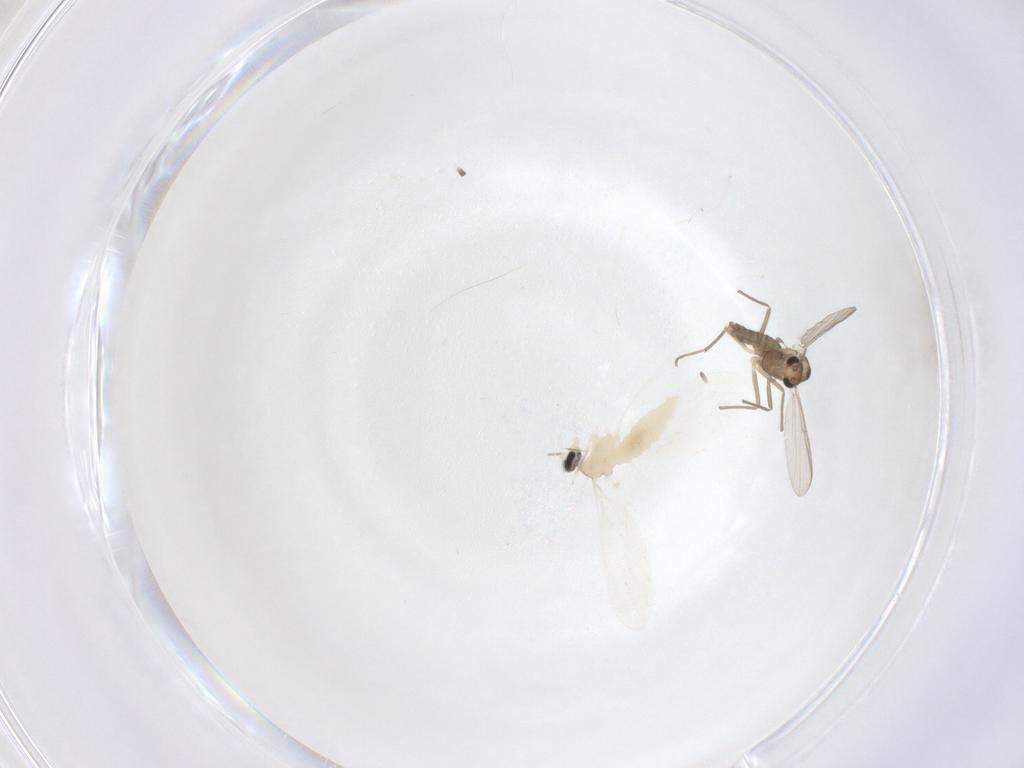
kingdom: Animalia
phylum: Arthropoda
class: Insecta
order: Diptera
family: Chironomidae
